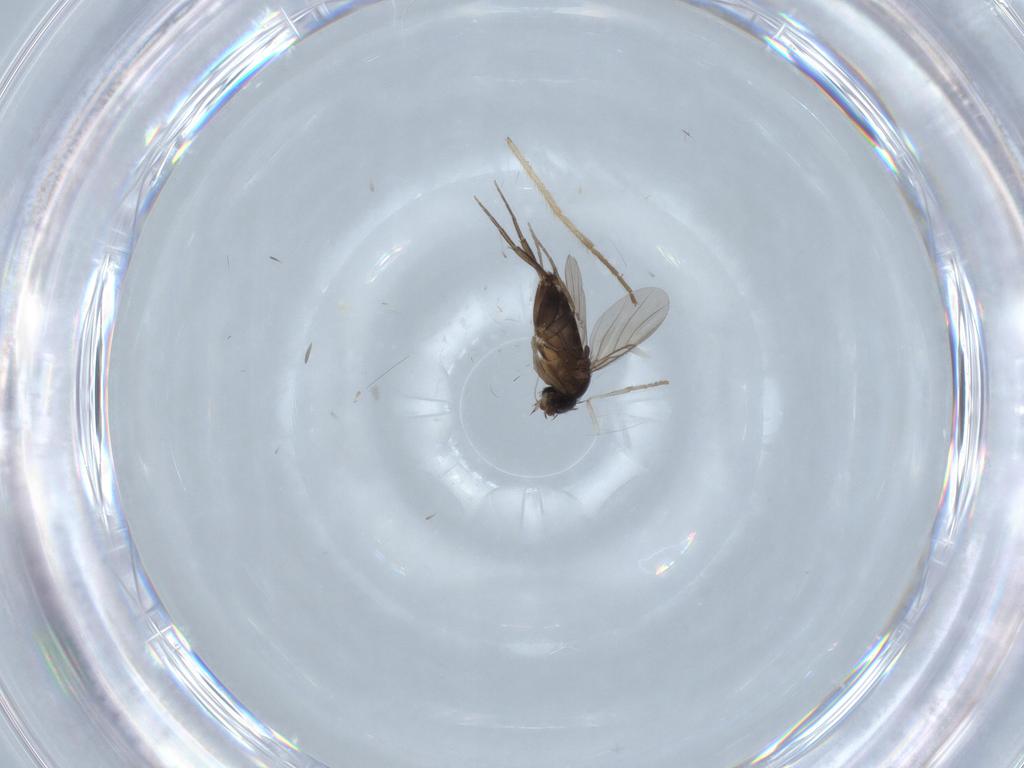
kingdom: Animalia
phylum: Arthropoda
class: Insecta
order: Diptera
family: Phoridae
